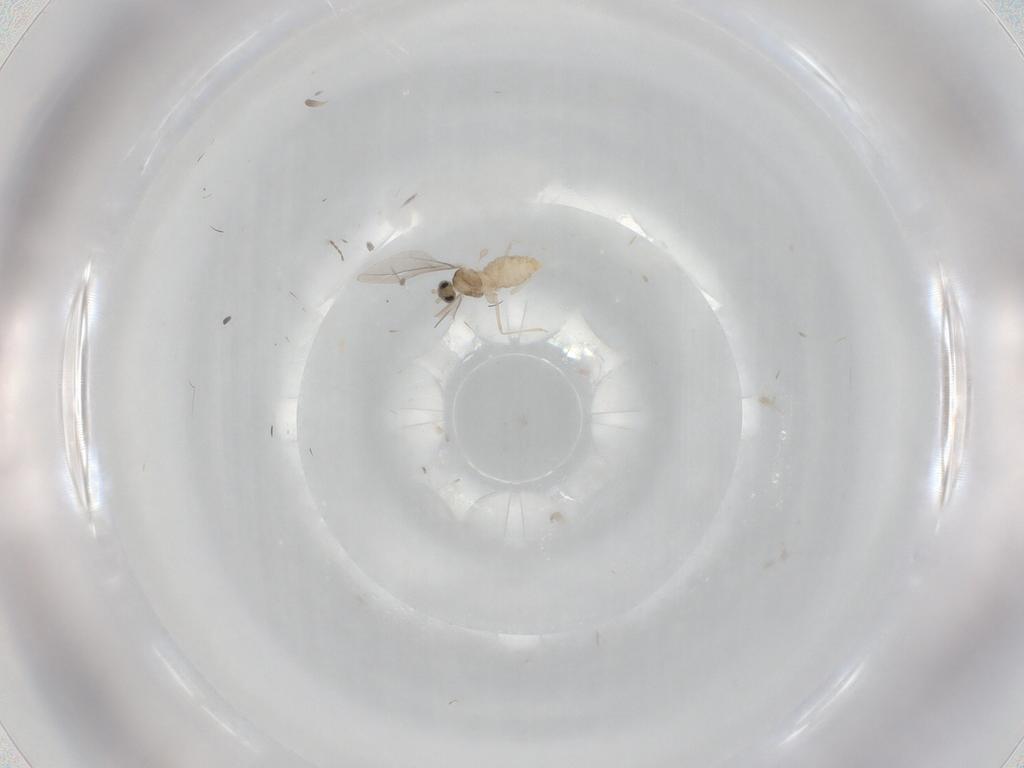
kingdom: Animalia
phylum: Arthropoda
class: Insecta
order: Diptera
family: Cecidomyiidae
